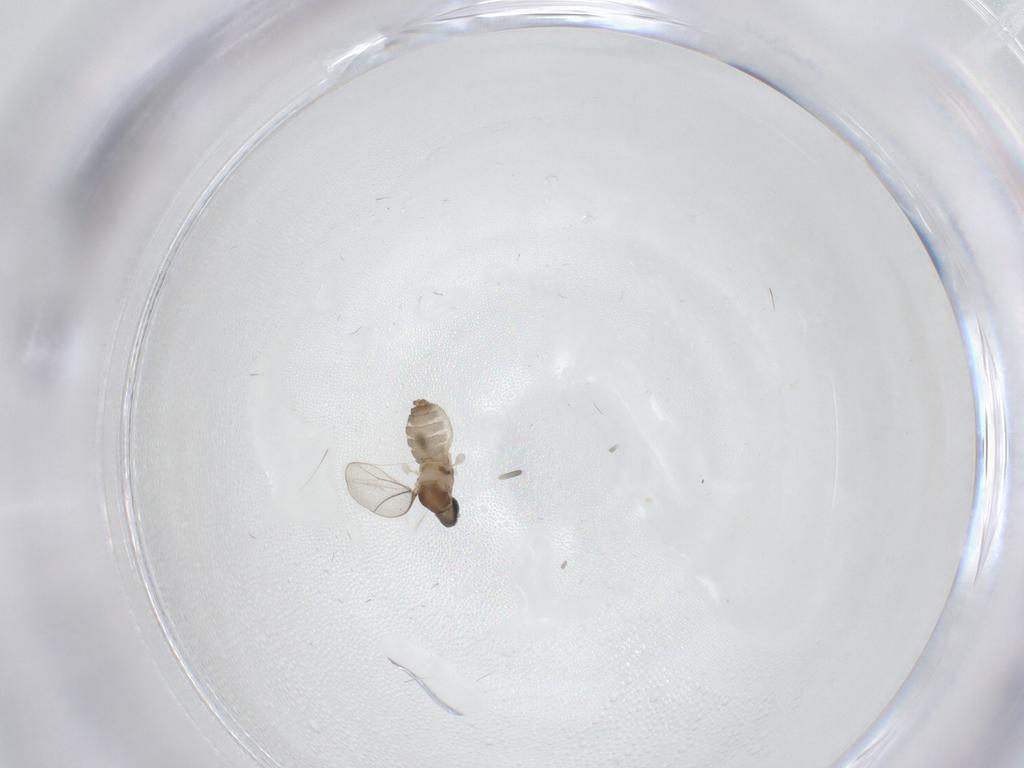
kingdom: Animalia
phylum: Arthropoda
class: Insecta
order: Diptera
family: Cecidomyiidae
